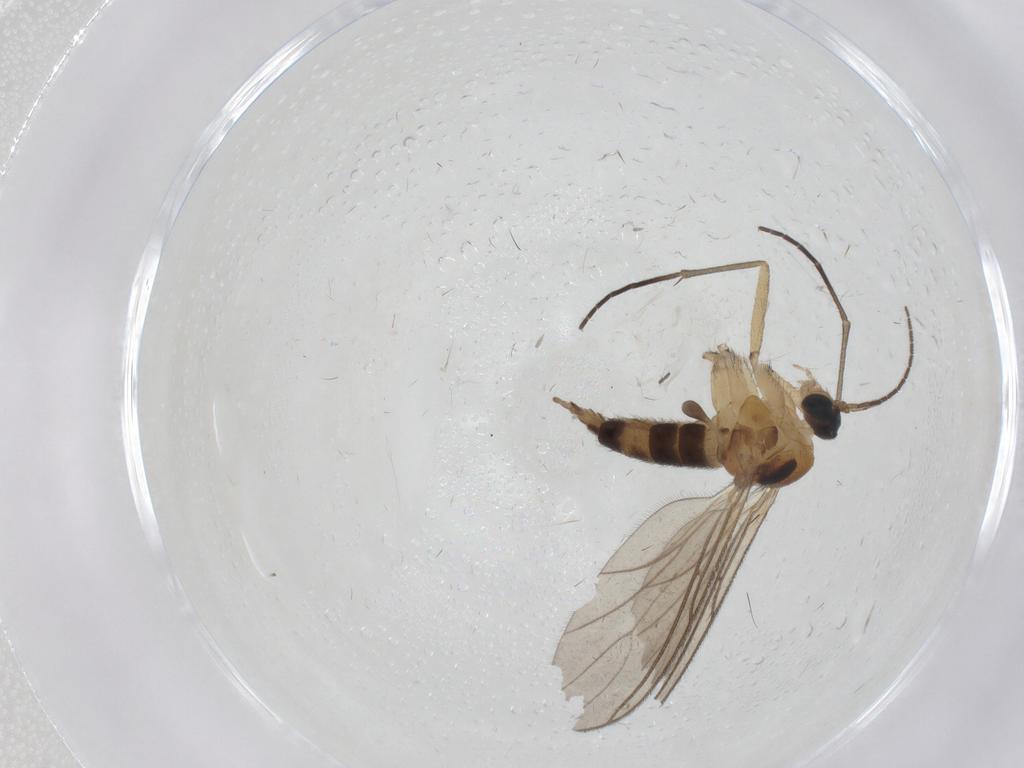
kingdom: Animalia
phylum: Arthropoda
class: Insecta
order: Diptera
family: Sciaridae
